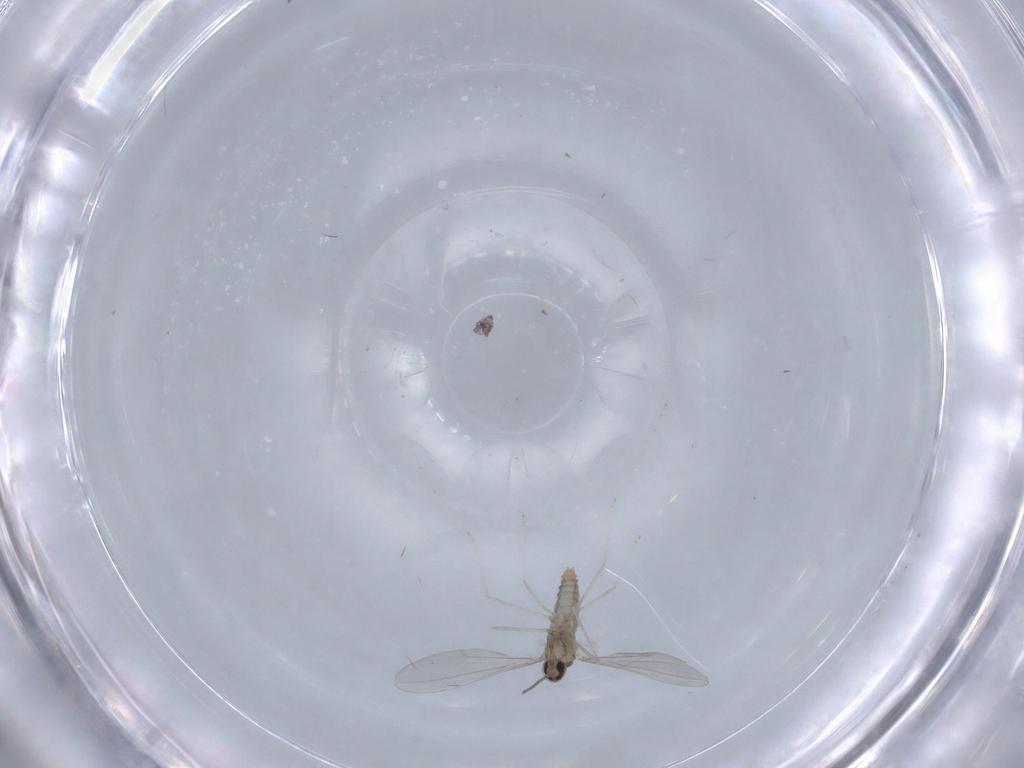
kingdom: Animalia
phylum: Arthropoda
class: Insecta
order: Diptera
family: Cecidomyiidae
